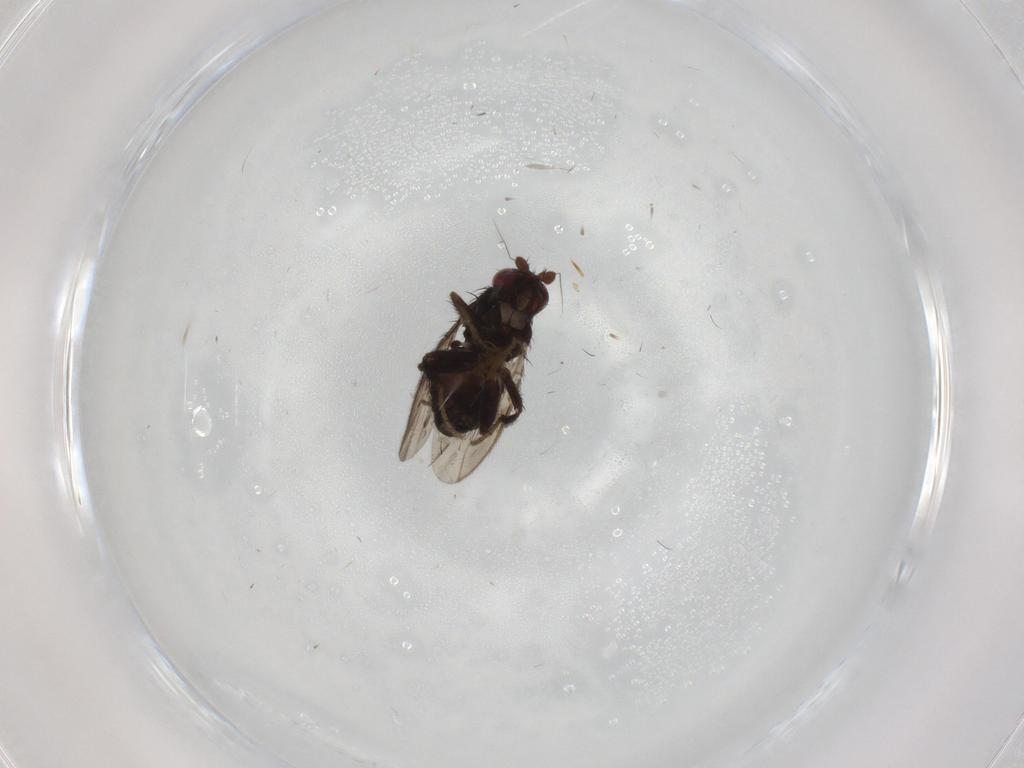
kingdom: Animalia
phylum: Arthropoda
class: Insecta
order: Diptera
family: Sphaeroceridae
